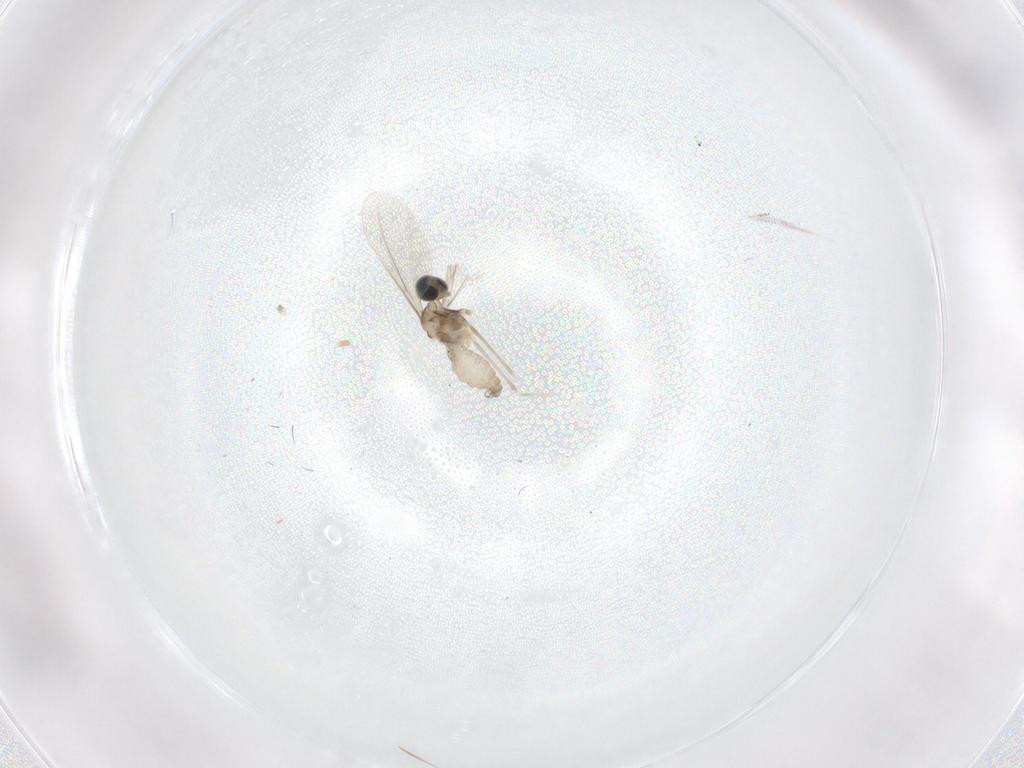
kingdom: Animalia
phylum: Arthropoda
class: Insecta
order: Diptera
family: Cecidomyiidae
